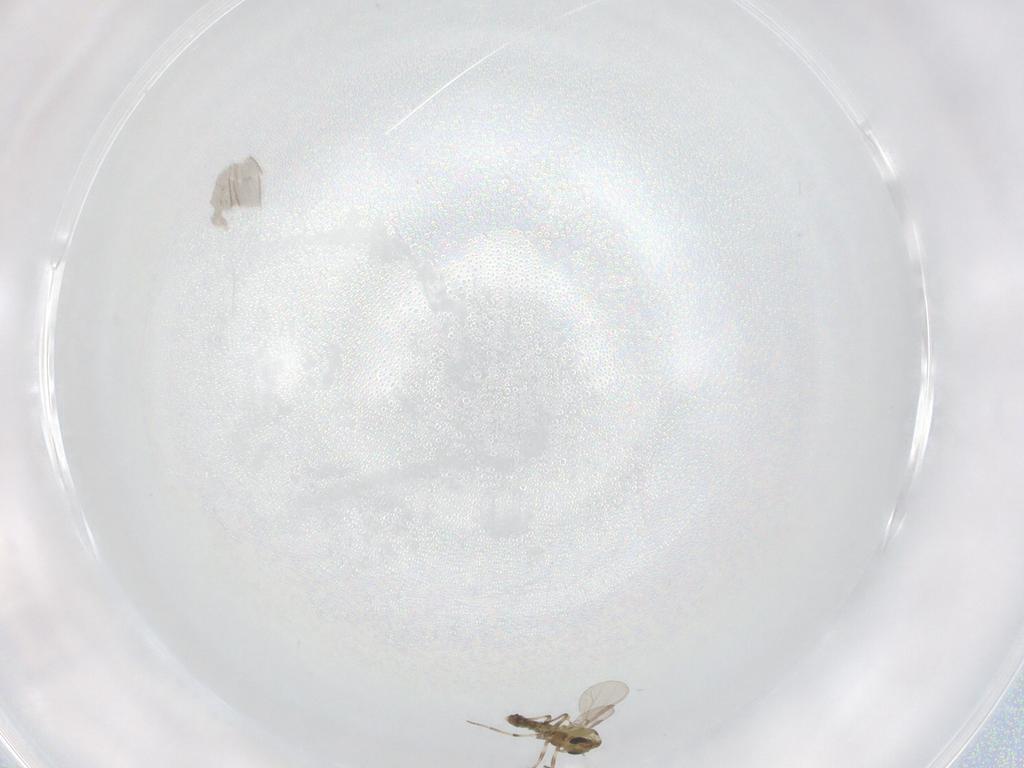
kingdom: Animalia
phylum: Arthropoda
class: Insecta
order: Diptera
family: Ceratopogonidae
